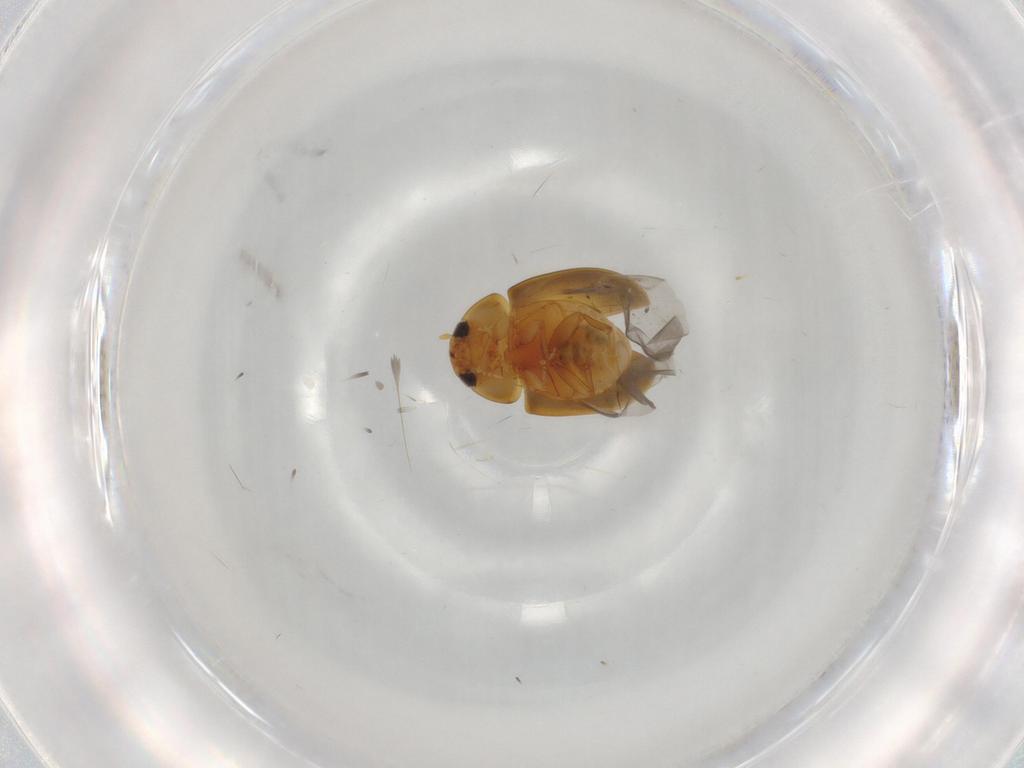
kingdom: Animalia
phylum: Arthropoda
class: Insecta
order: Coleoptera
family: Phalacridae
